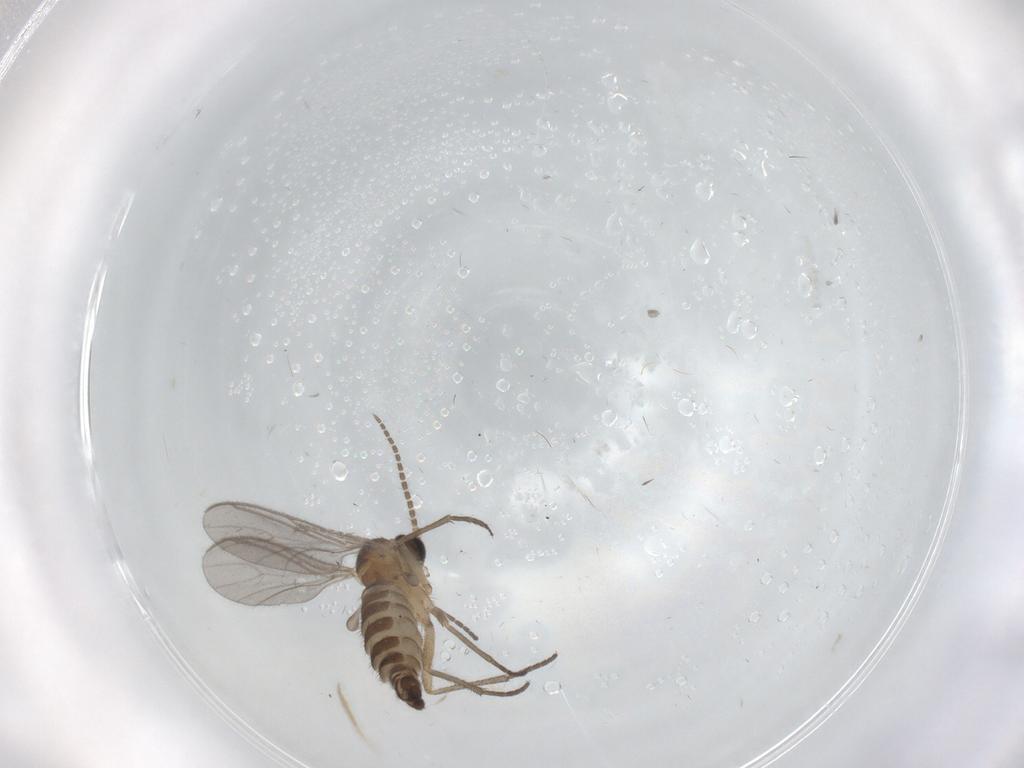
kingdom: Animalia
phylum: Arthropoda
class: Insecta
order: Diptera
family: Sciaridae
